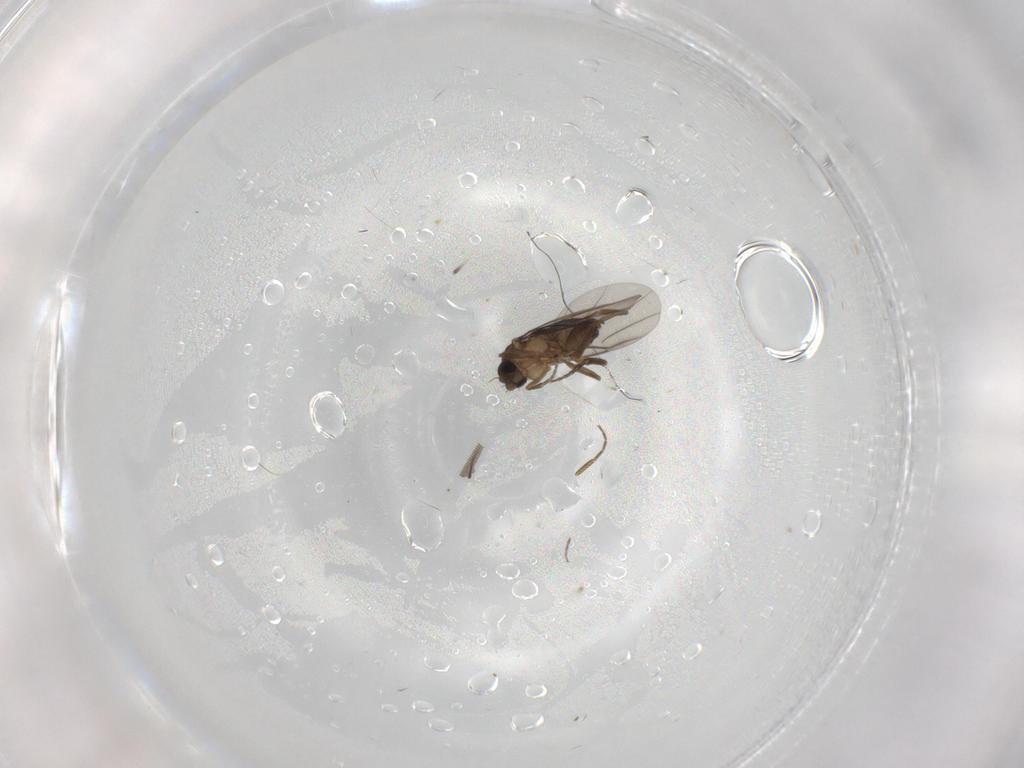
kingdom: Animalia
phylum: Arthropoda
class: Insecta
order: Diptera
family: Phoridae
